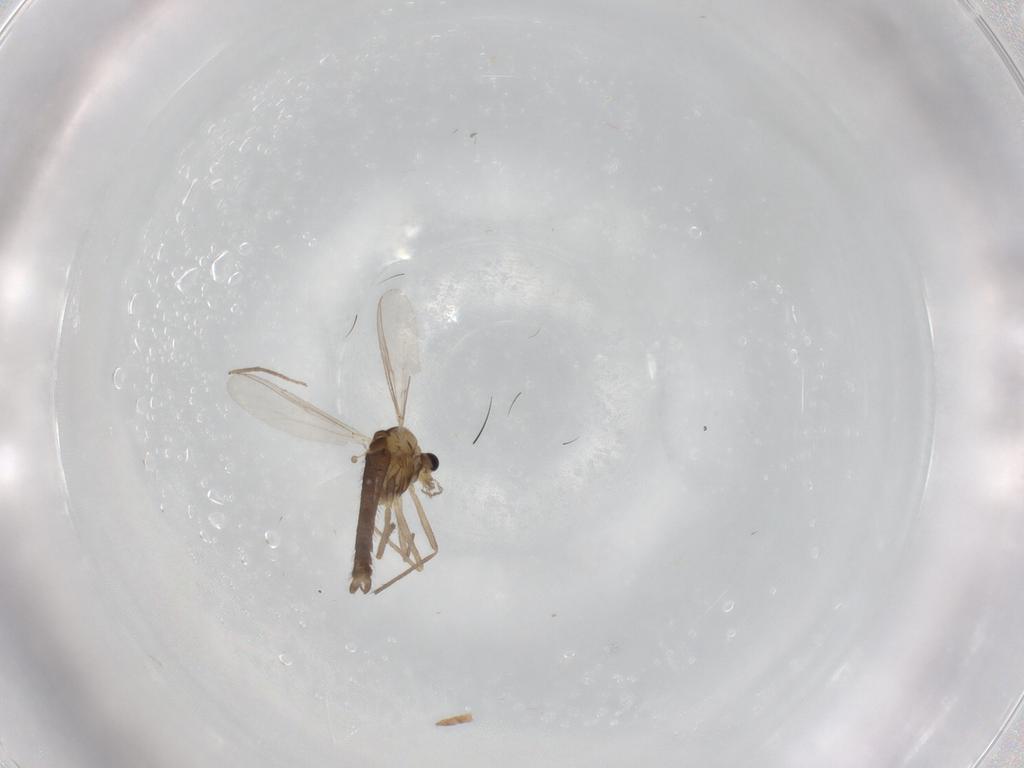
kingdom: Animalia
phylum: Arthropoda
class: Insecta
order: Diptera
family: Chironomidae
